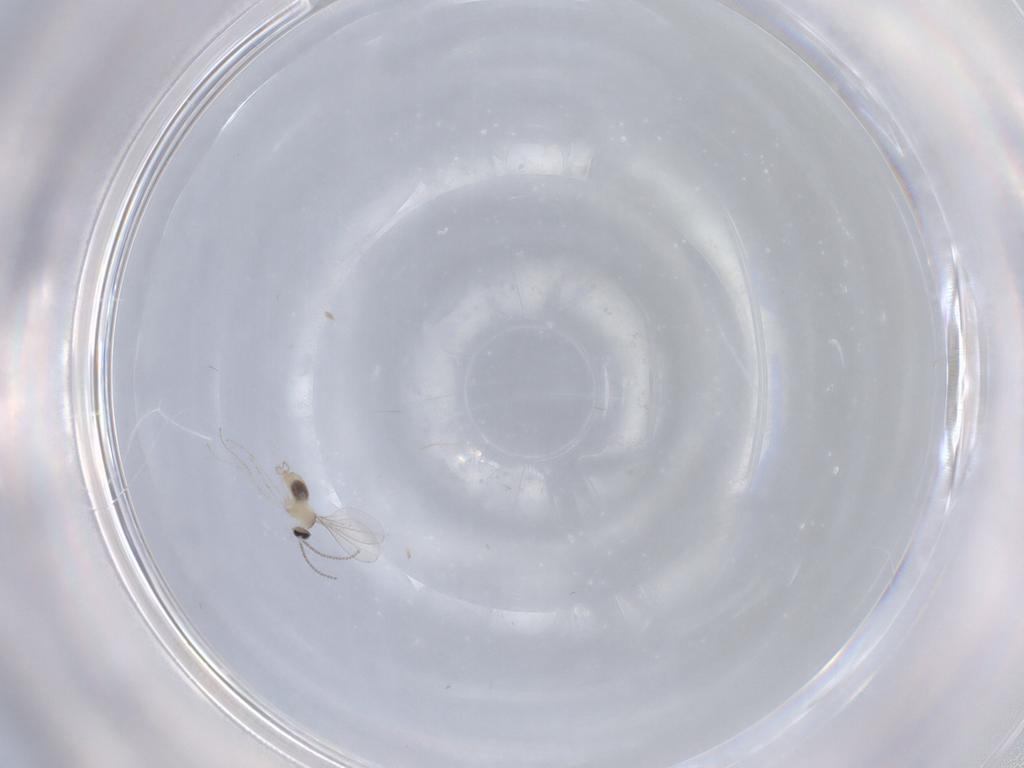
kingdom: Animalia
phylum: Arthropoda
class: Insecta
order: Diptera
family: Cecidomyiidae
